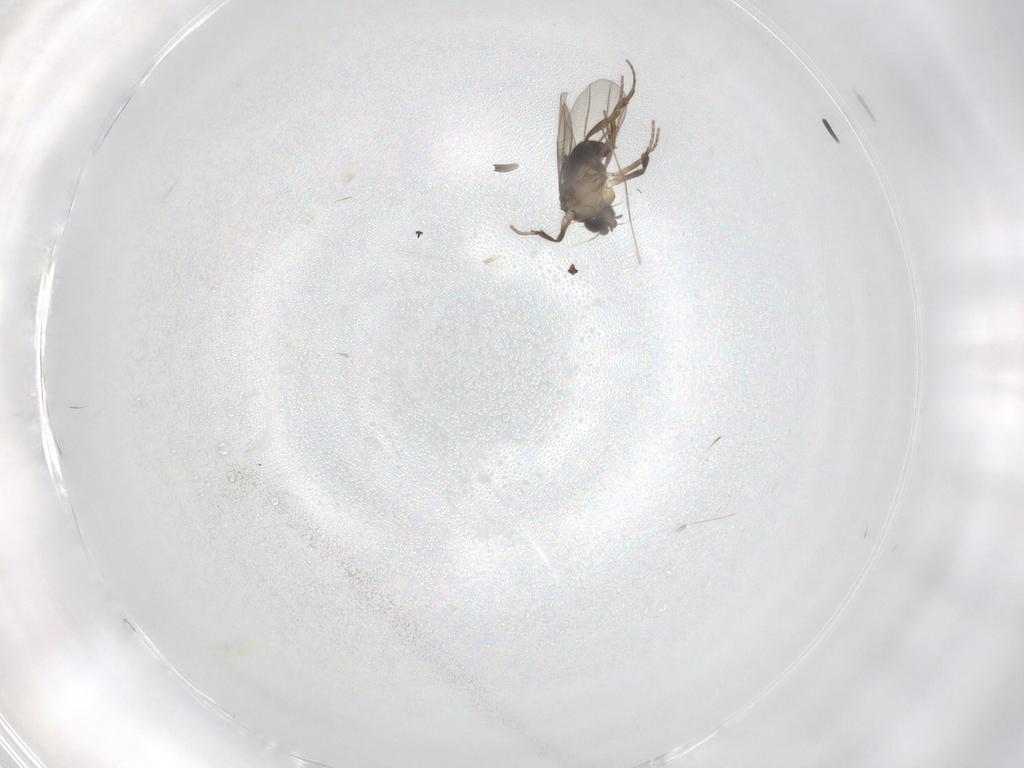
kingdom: Animalia
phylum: Arthropoda
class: Insecta
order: Diptera
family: Phoridae
